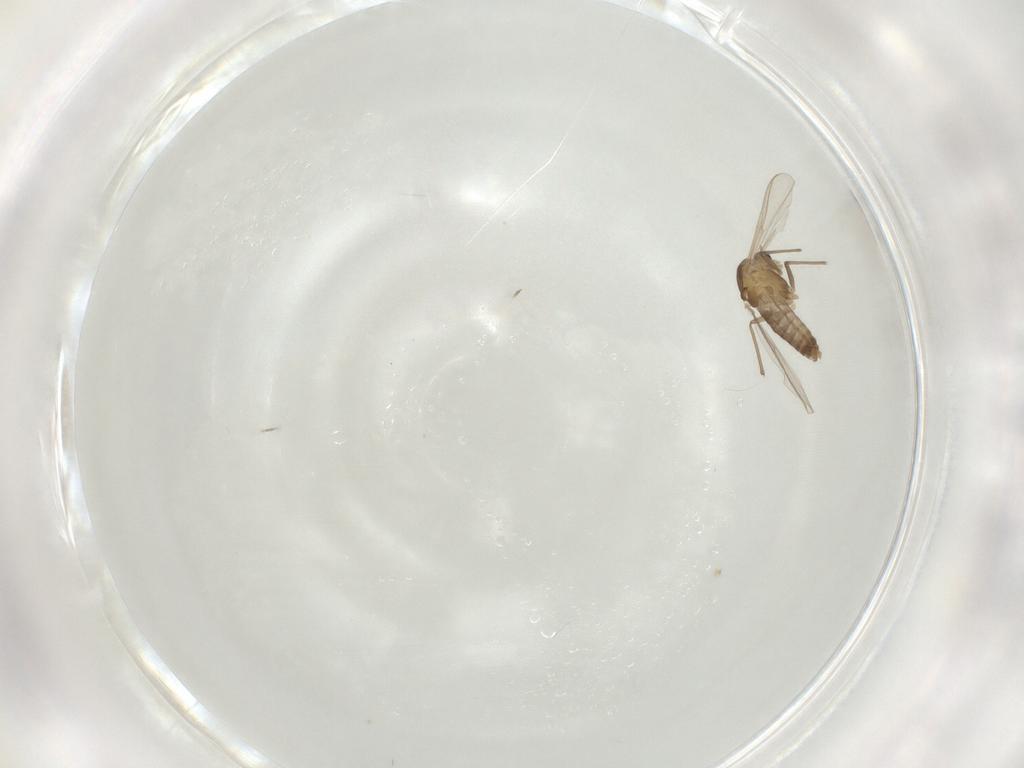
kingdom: Animalia
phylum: Arthropoda
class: Insecta
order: Diptera
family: Chironomidae
